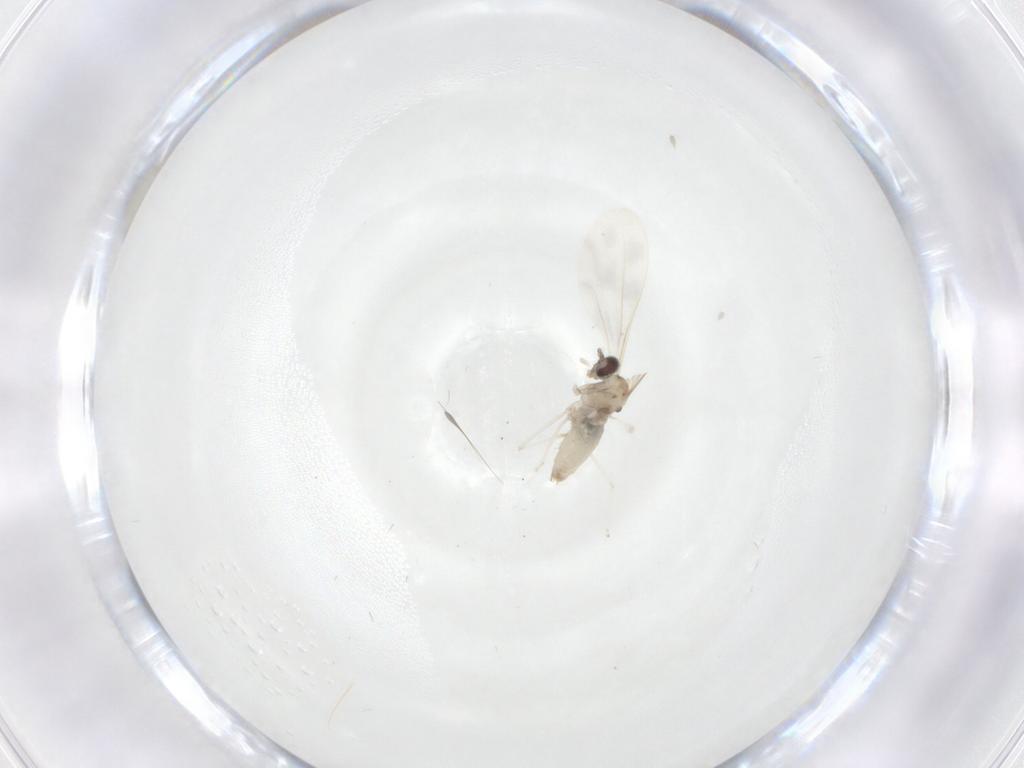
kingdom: Animalia
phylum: Arthropoda
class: Insecta
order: Diptera
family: Cecidomyiidae
